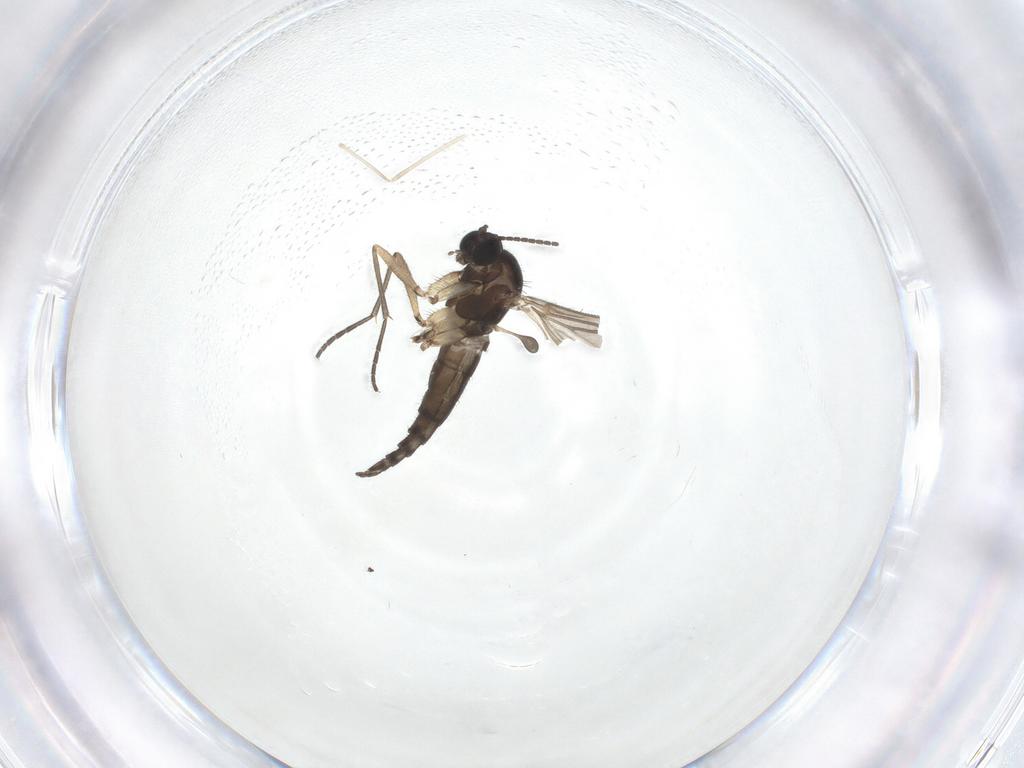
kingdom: Animalia
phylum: Arthropoda
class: Insecta
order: Diptera
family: Sciaridae
